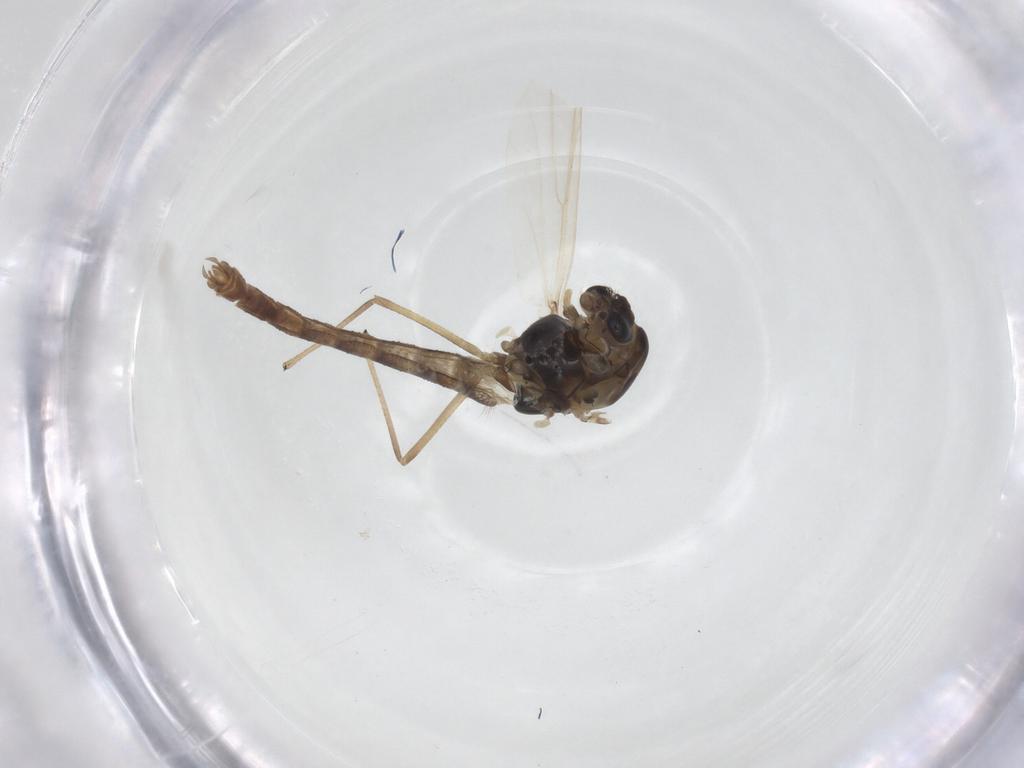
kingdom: Animalia
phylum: Arthropoda
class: Insecta
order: Diptera
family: Chironomidae
